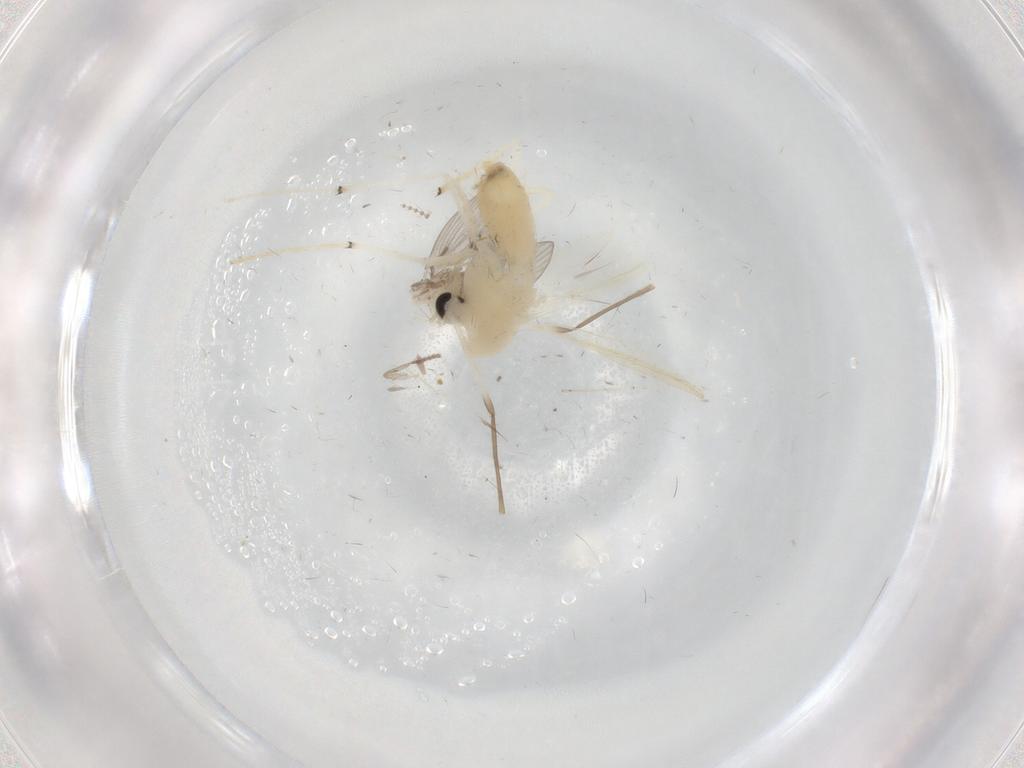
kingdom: Animalia
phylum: Arthropoda
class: Insecta
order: Diptera
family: Psychodidae
